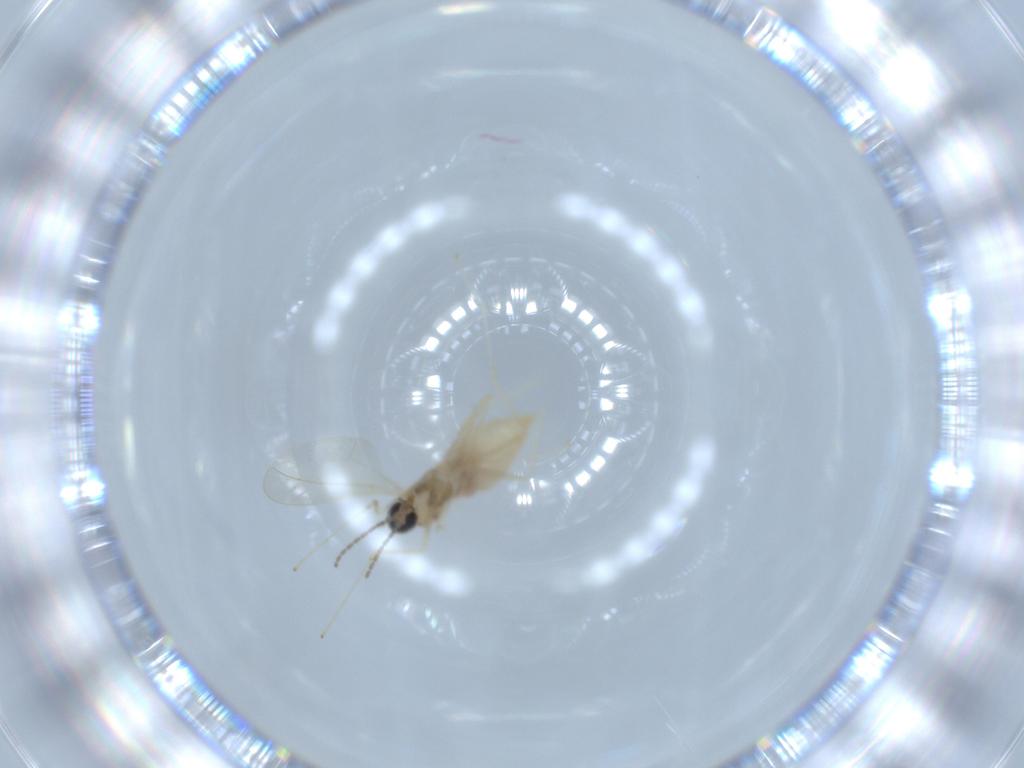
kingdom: Animalia
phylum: Arthropoda
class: Insecta
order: Diptera
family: Cecidomyiidae
